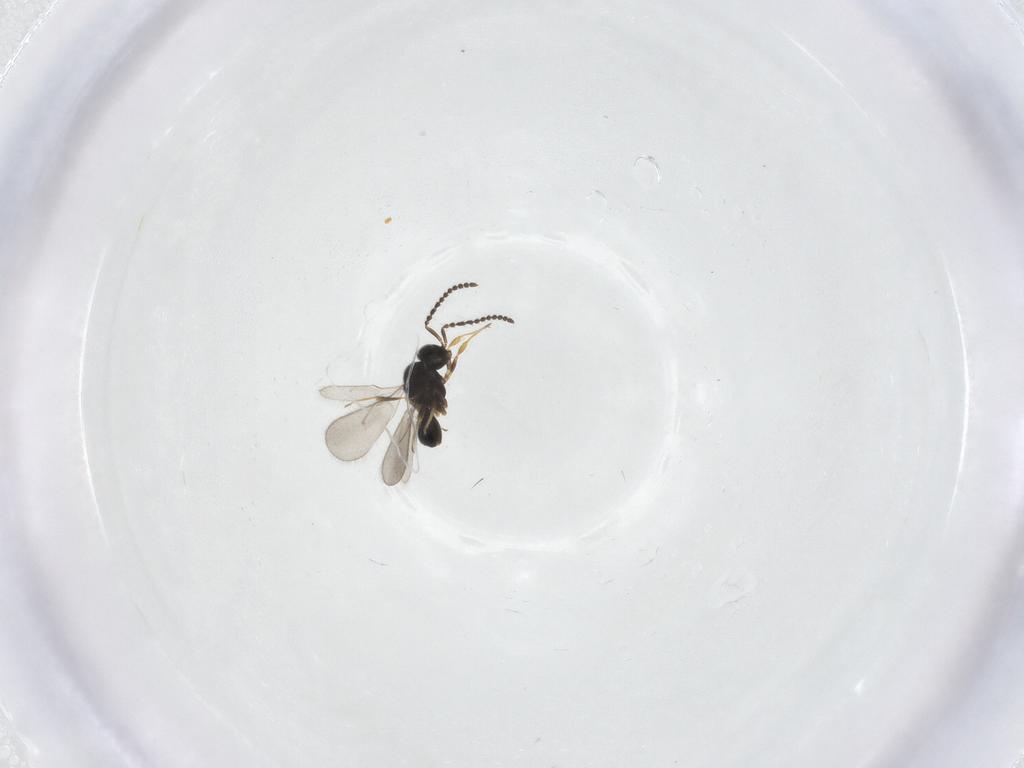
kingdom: Animalia
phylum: Arthropoda
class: Insecta
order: Hymenoptera
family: Scelionidae
